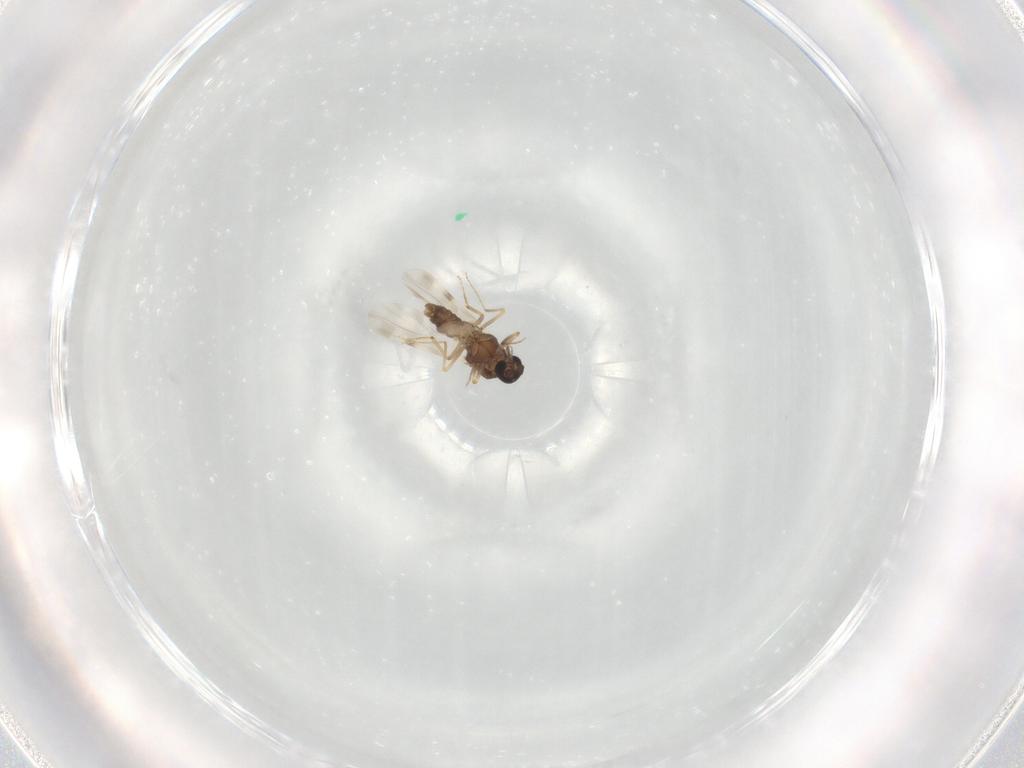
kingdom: Animalia
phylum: Arthropoda
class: Insecta
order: Diptera
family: Ceratopogonidae
